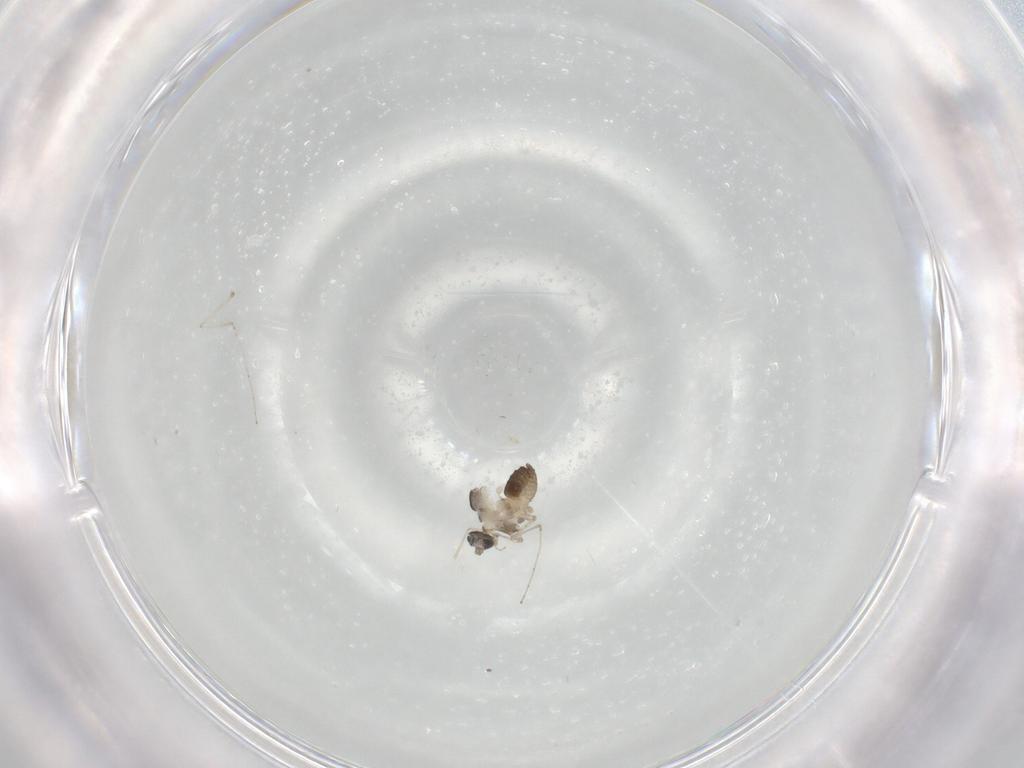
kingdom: Animalia
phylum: Arthropoda
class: Insecta
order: Diptera
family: Cecidomyiidae
